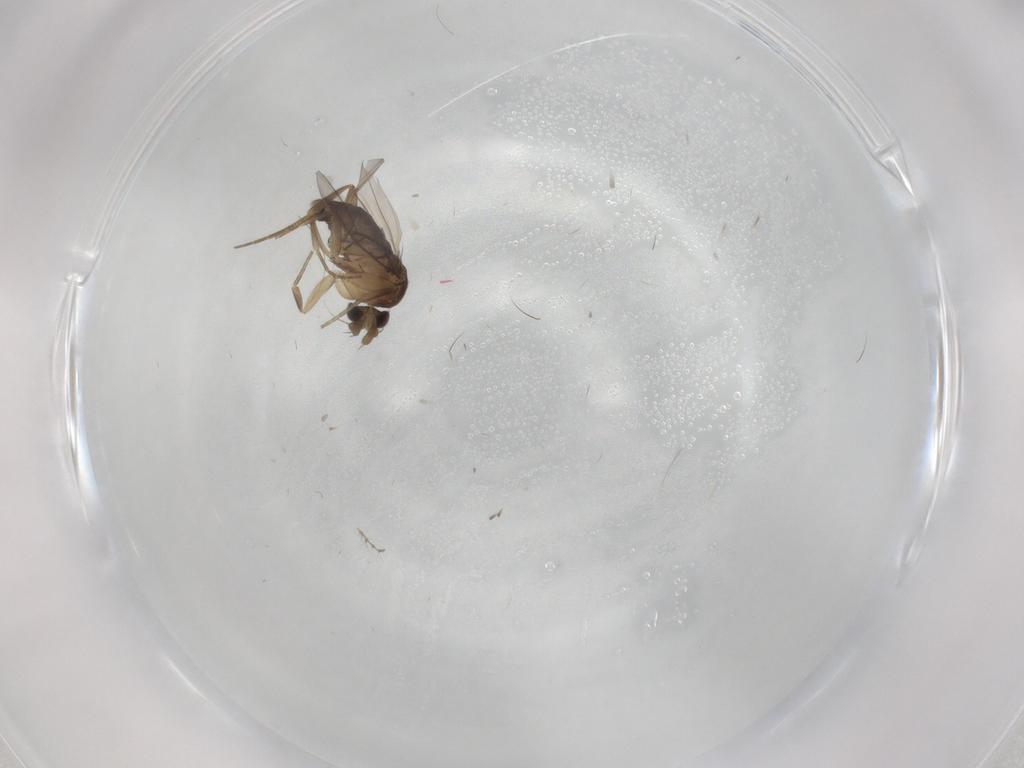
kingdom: Animalia
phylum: Arthropoda
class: Insecta
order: Diptera
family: Phoridae
